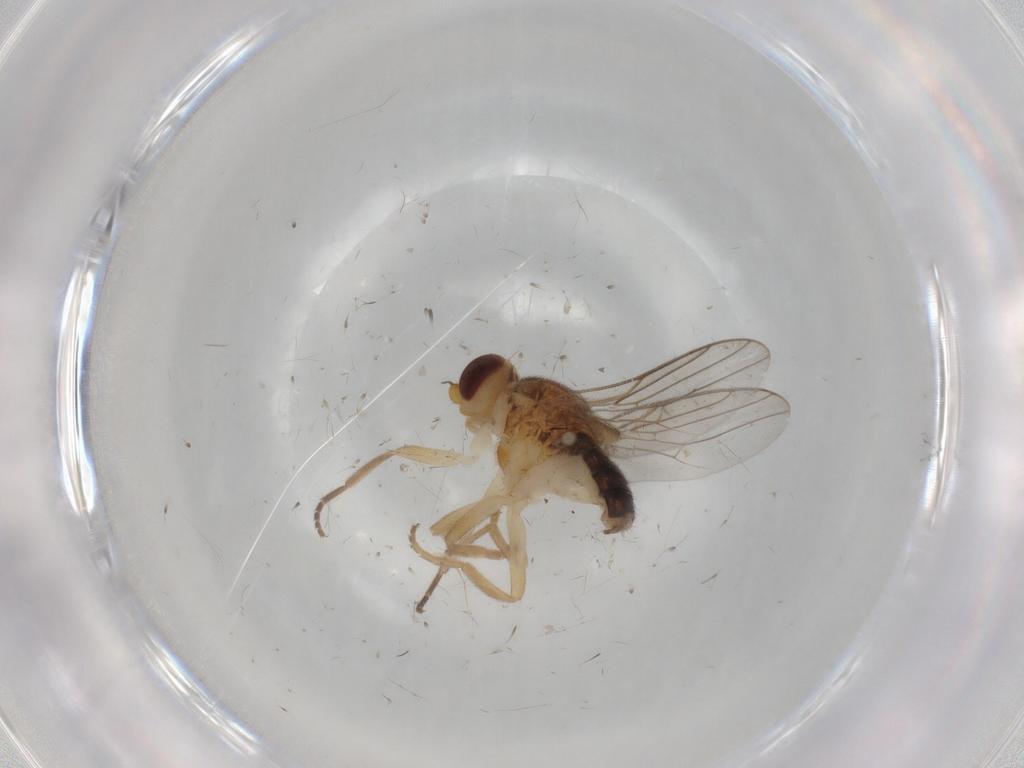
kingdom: Animalia
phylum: Arthropoda
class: Insecta
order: Diptera
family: Chloropidae
